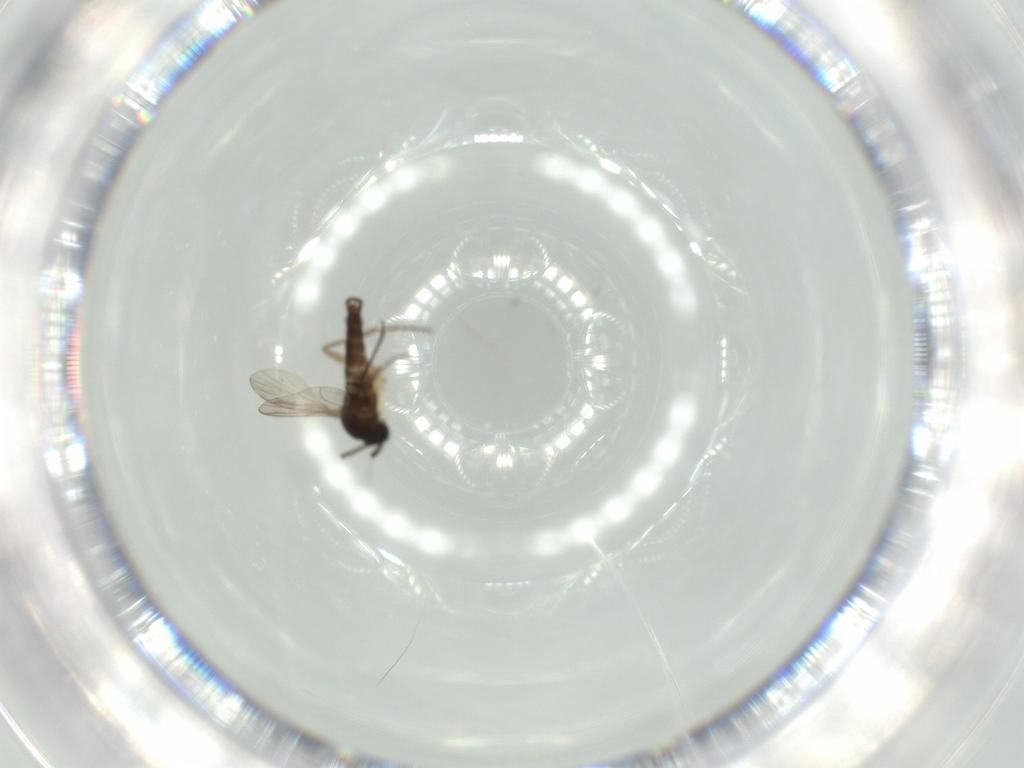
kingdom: Animalia
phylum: Arthropoda
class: Insecta
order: Diptera
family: Sciaridae
